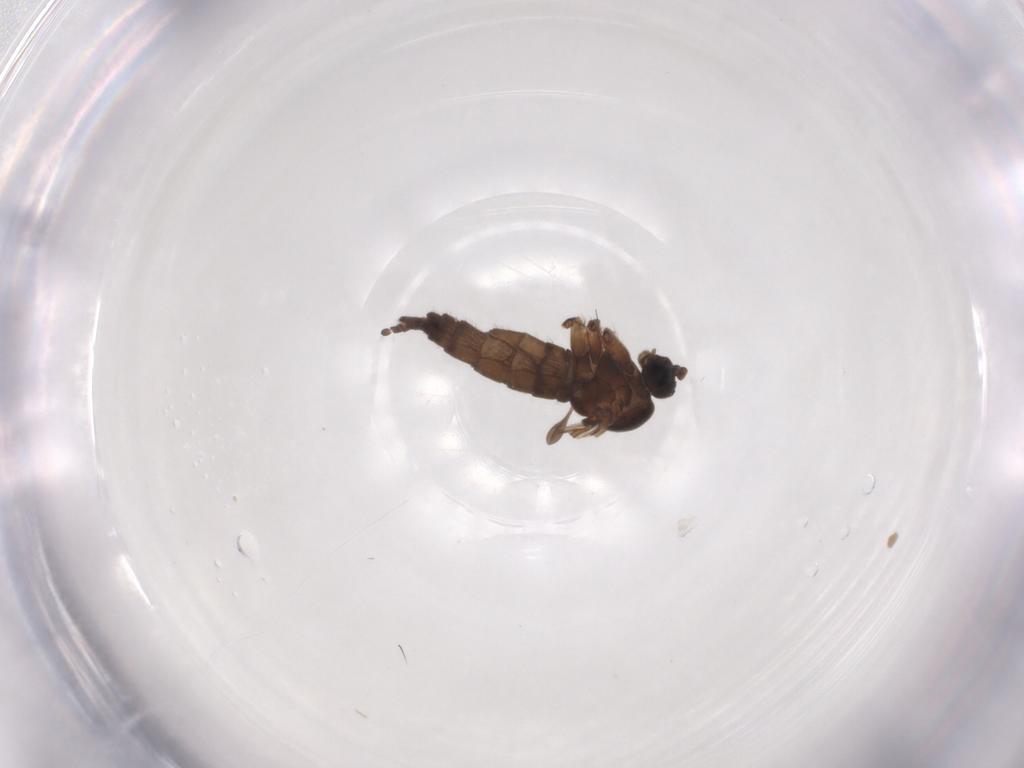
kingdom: Animalia
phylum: Arthropoda
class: Insecta
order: Diptera
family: Sciaridae
